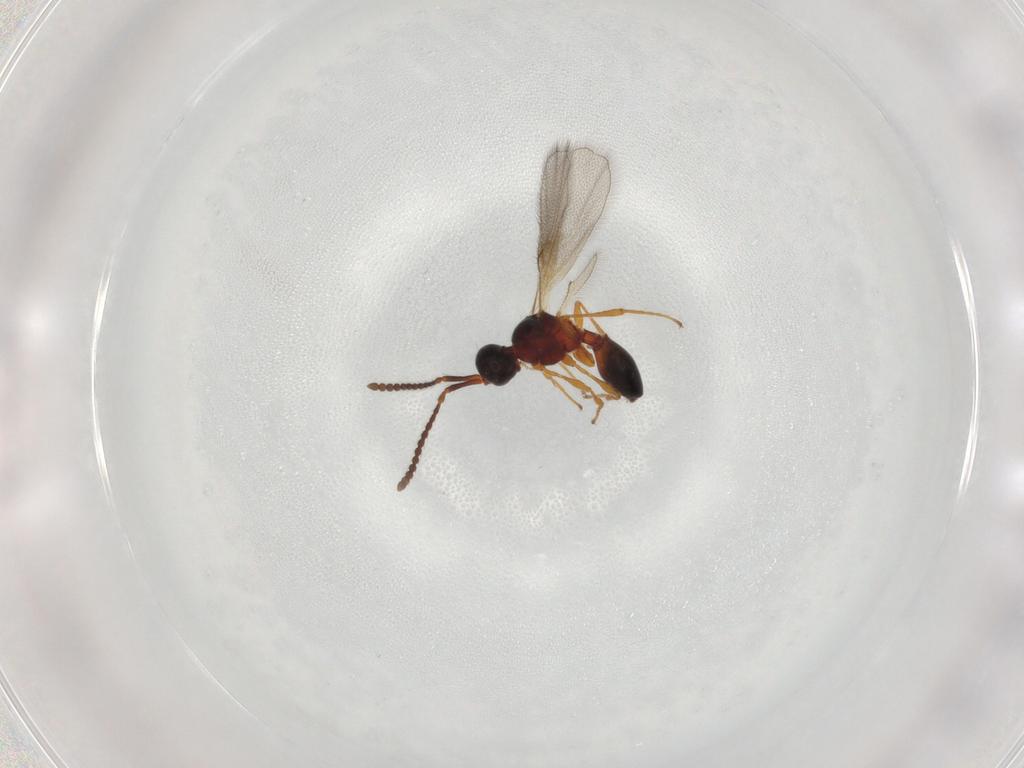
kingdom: Animalia
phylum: Arthropoda
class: Insecta
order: Hymenoptera
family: Diapriidae
